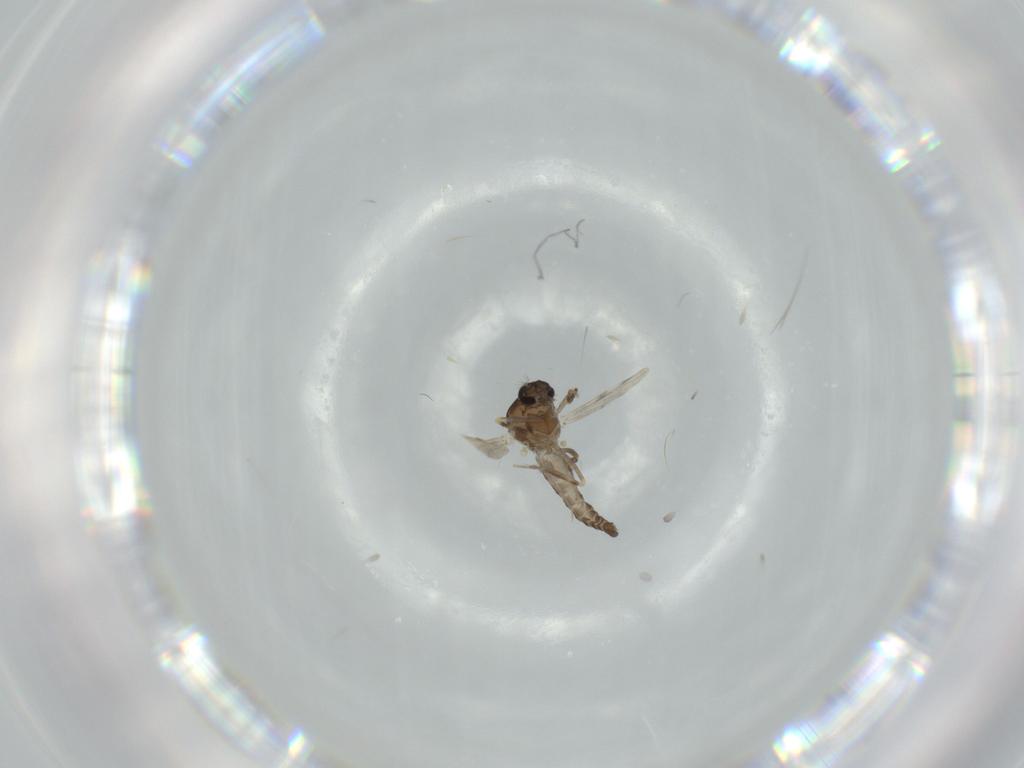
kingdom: Animalia
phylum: Arthropoda
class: Insecta
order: Diptera
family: Ceratopogonidae
